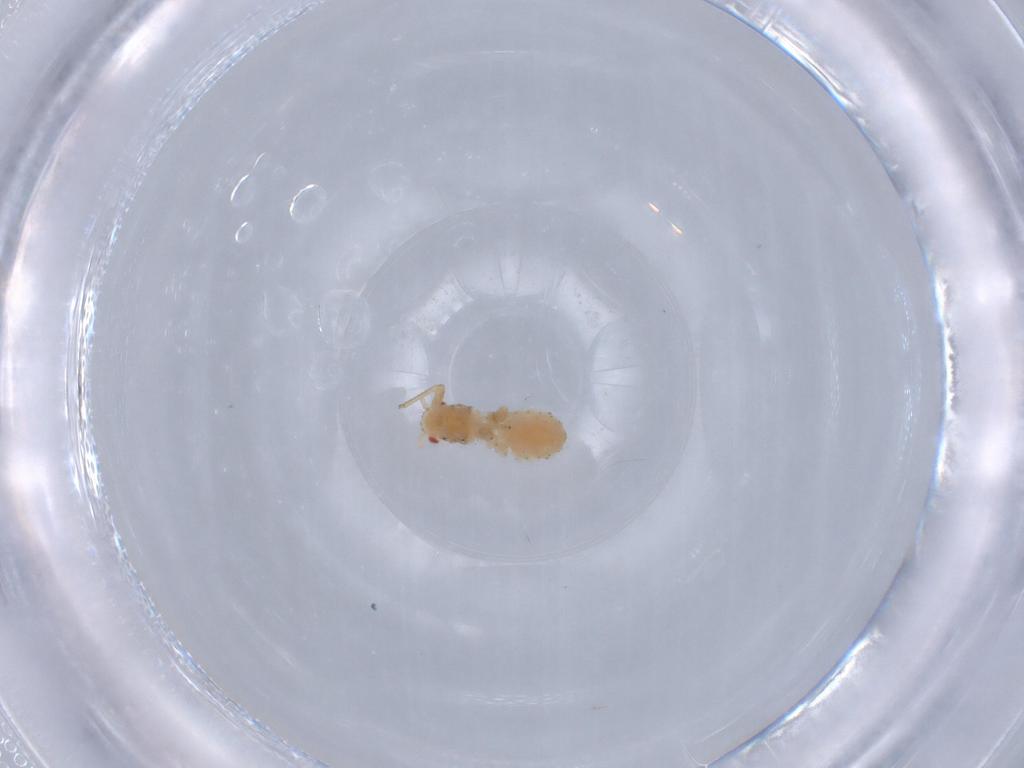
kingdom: Animalia
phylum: Arthropoda
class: Insecta
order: Hemiptera
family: Aphididae
